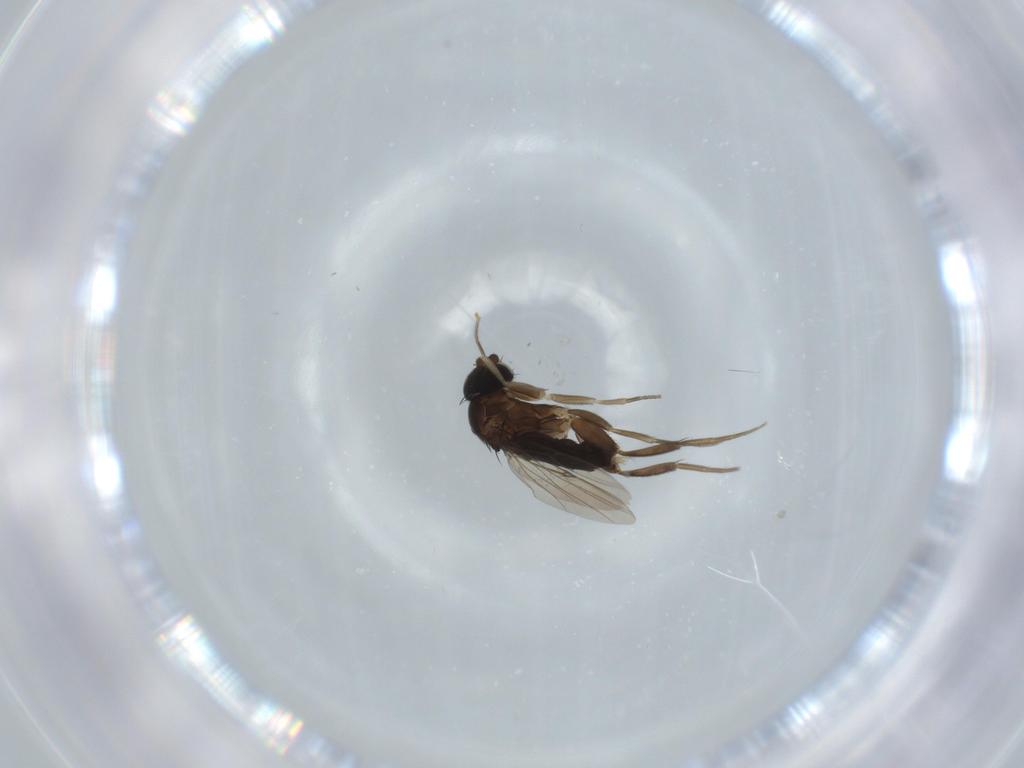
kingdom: Animalia
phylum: Arthropoda
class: Insecta
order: Diptera
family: Phoridae
